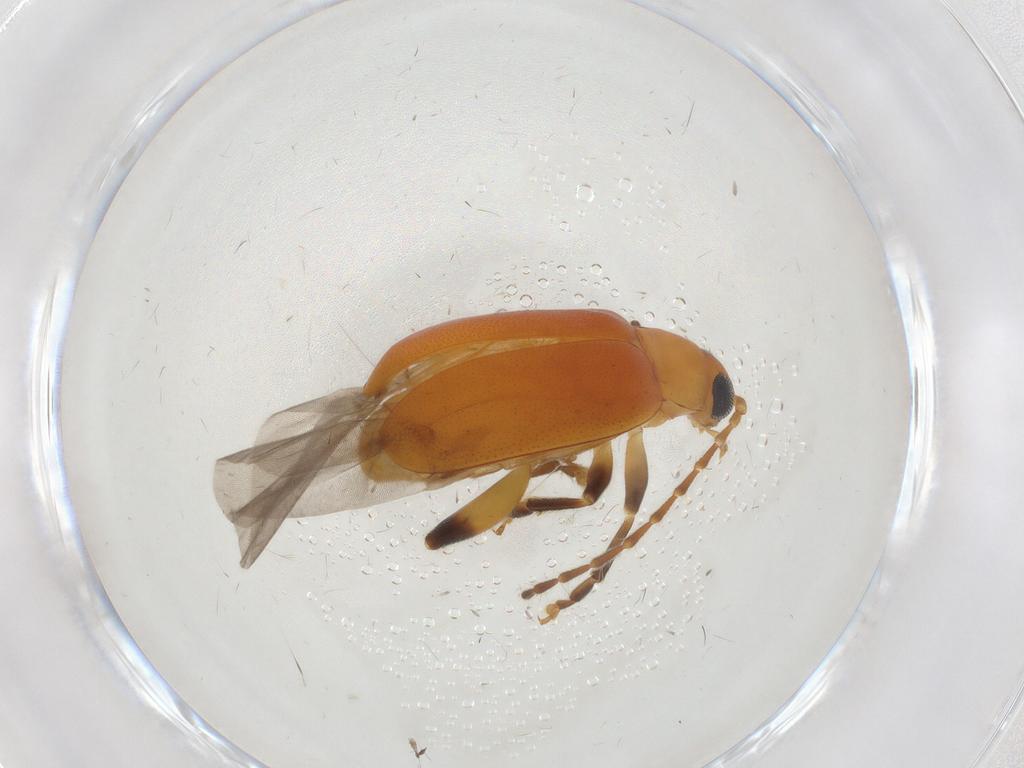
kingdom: Animalia
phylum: Arthropoda
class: Insecta
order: Coleoptera
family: Chrysomelidae
